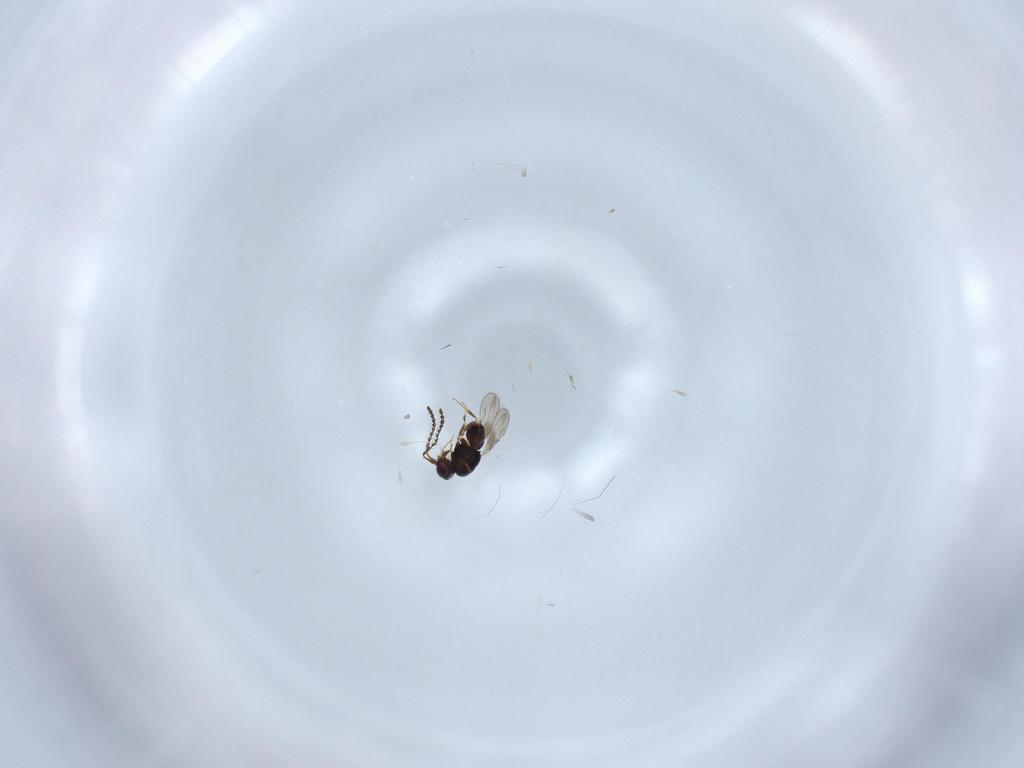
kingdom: Animalia
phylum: Arthropoda
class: Insecta
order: Hymenoptera
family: Ceraphronidae
